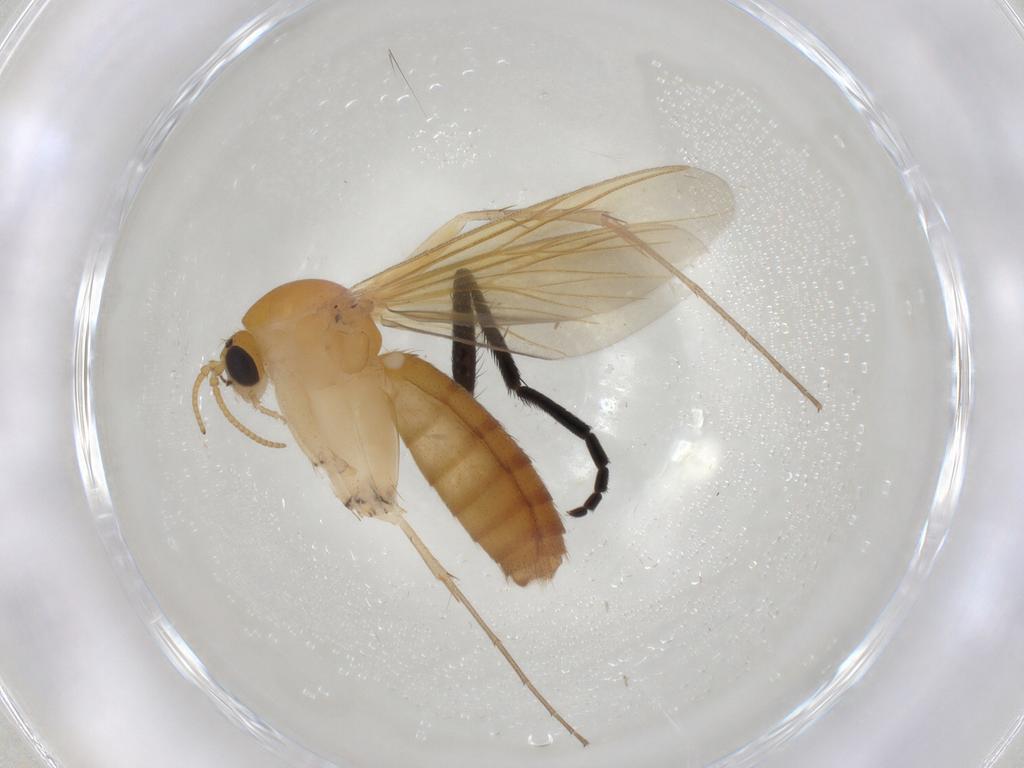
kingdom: Animalia
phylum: Arthropoda
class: Insecta
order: Diptera
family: Mycetophilidae
